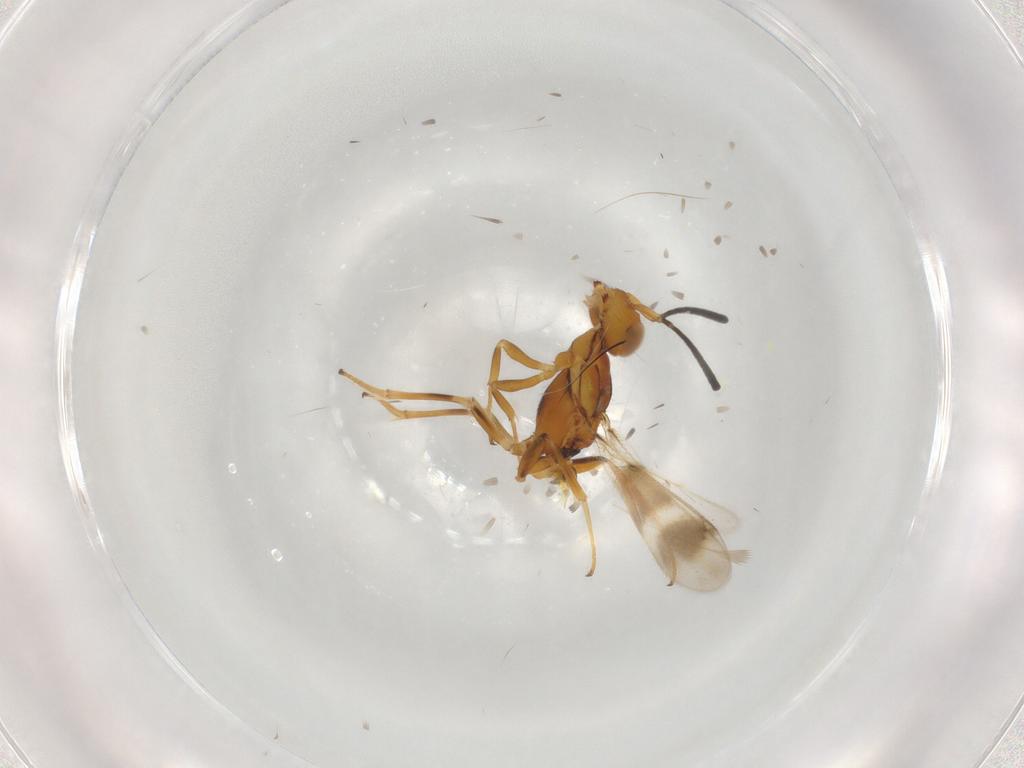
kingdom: Animalia
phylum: Arthropoda
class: Insecta
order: Hymenoptera
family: Eupelmidae
